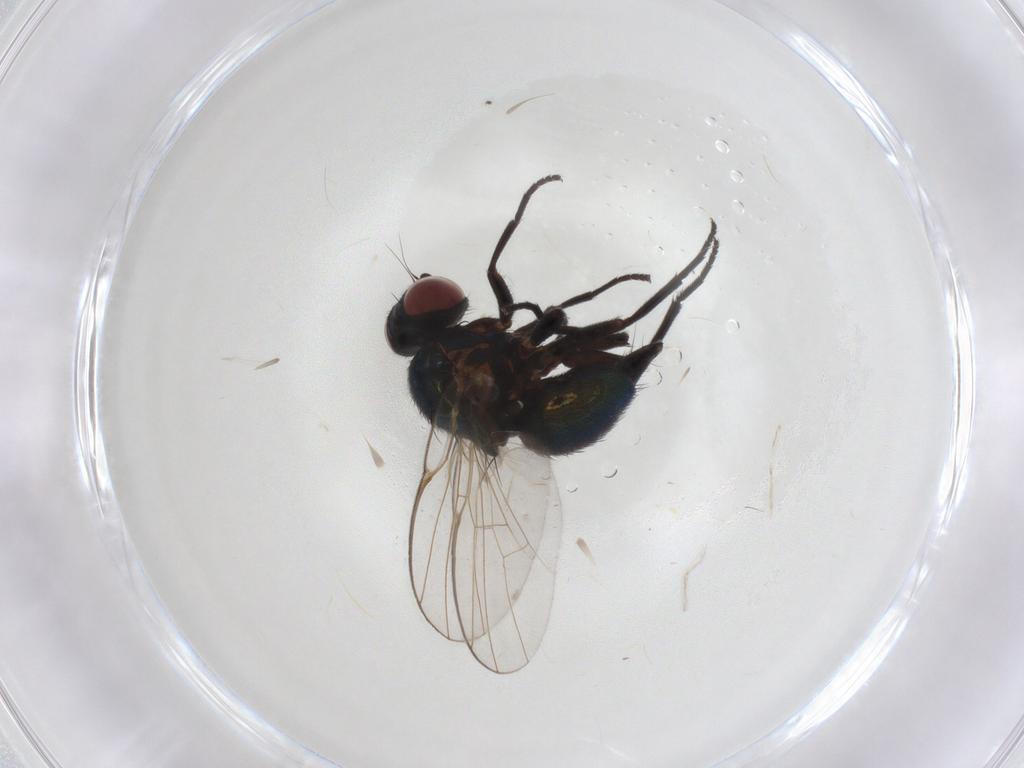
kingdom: Animalia
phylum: Arthropoda
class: Insecta
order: Diptera
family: Agromyzidae
